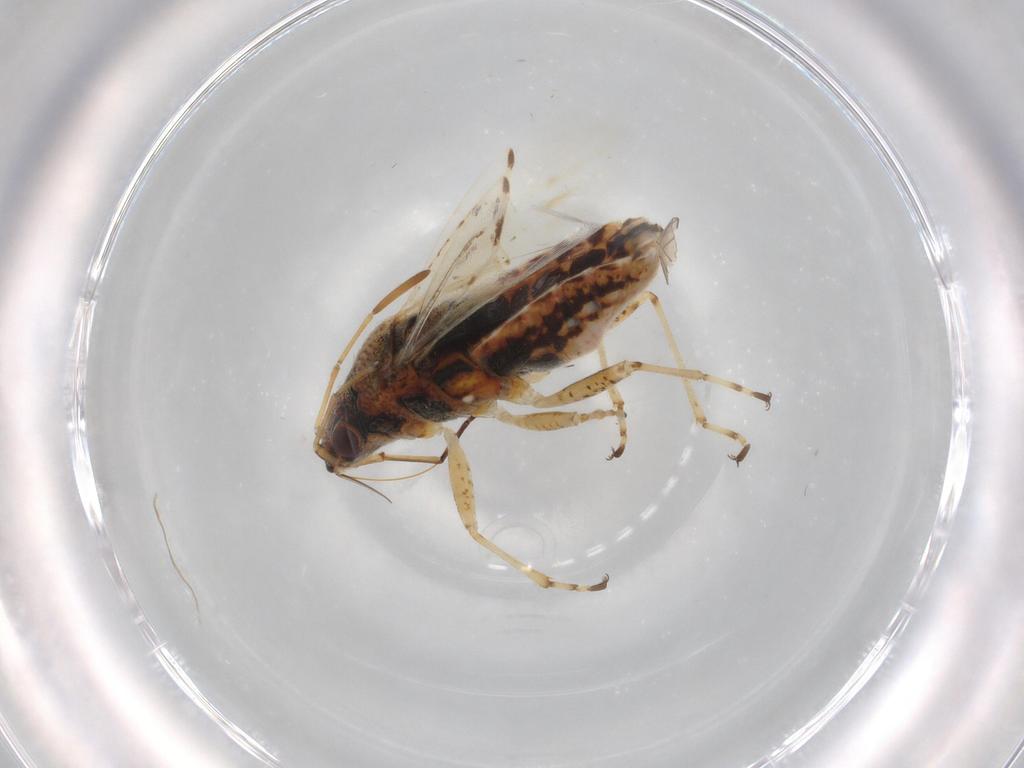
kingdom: Animalia
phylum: Arthropoda
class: Insecta
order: Hemiptera
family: Lygaeidae
